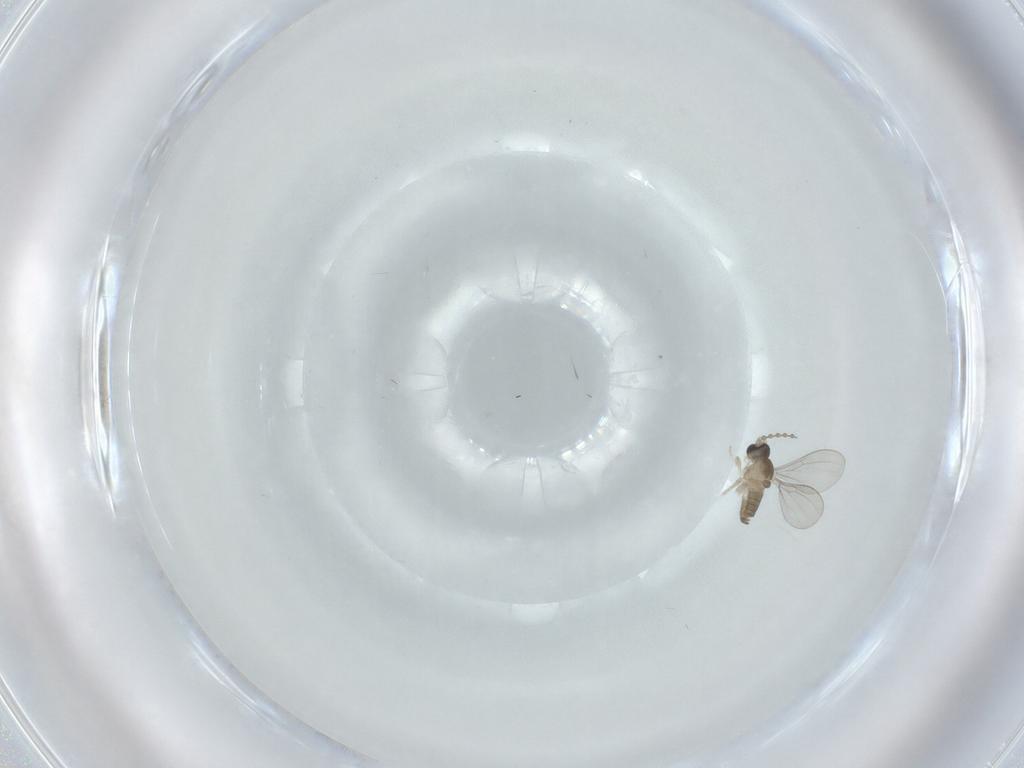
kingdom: Animalia
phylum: Arthropoda
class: Insecta
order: Diptera
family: Cecidomyiidae
